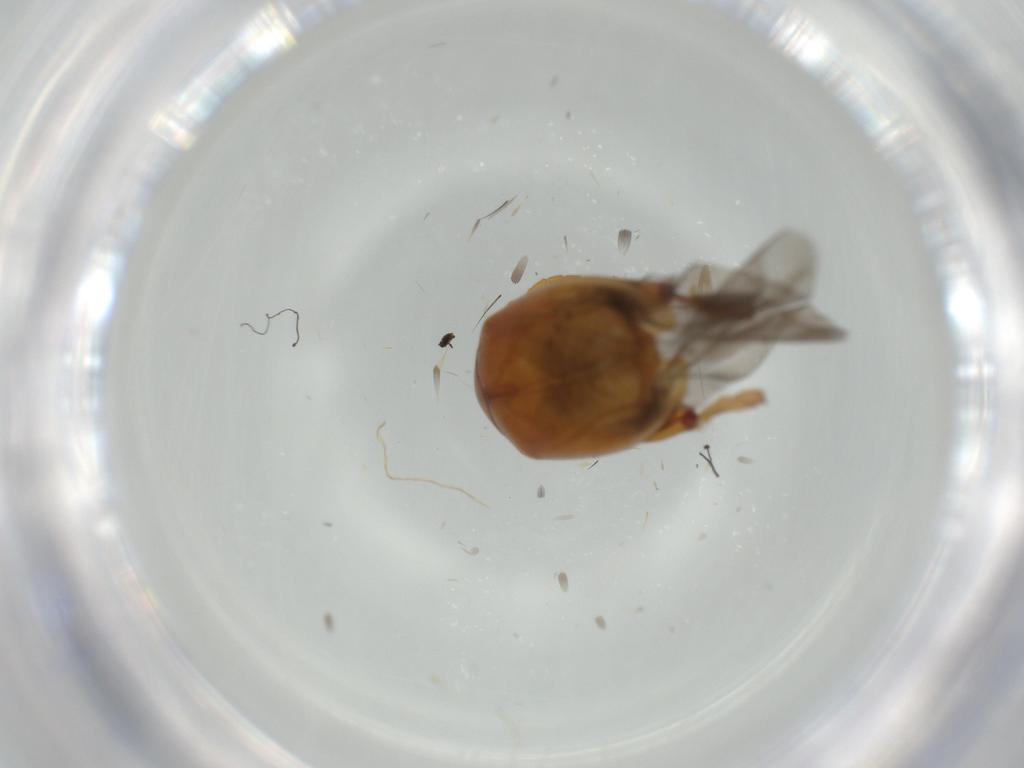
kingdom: Animalia
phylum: Arthropoda
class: Insecta
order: Coleoptera
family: Chrysomelidae
